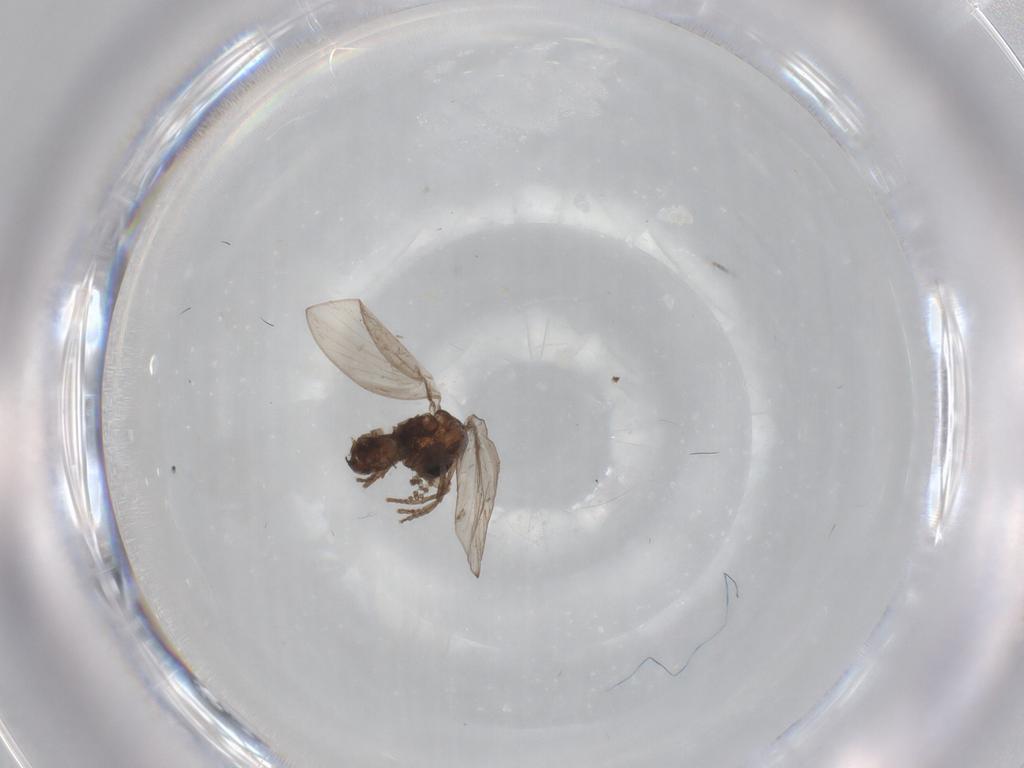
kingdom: Animalia
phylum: Arthropoda
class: Insecta
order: Diptera
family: Psychodidae
